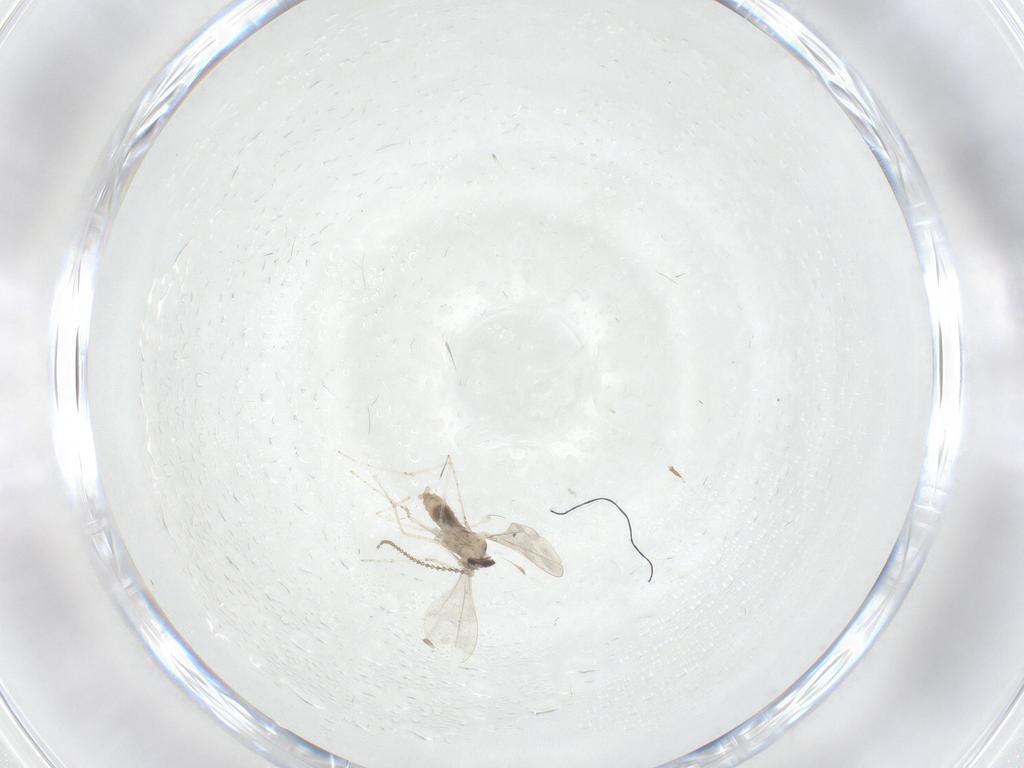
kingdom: Animalia
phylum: Arthropoda
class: Insecta
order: Diptera
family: Cecidomyiidae
